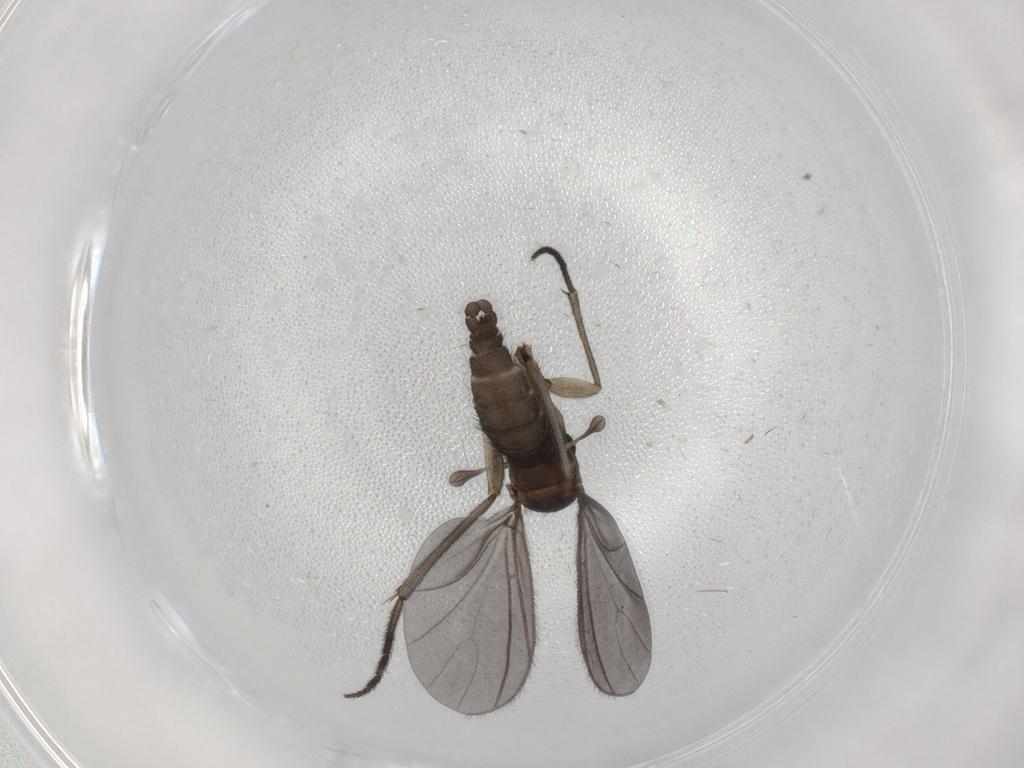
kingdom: Animalia
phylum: Arthropoda
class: Insecta
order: Diptera
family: Sciaridae
